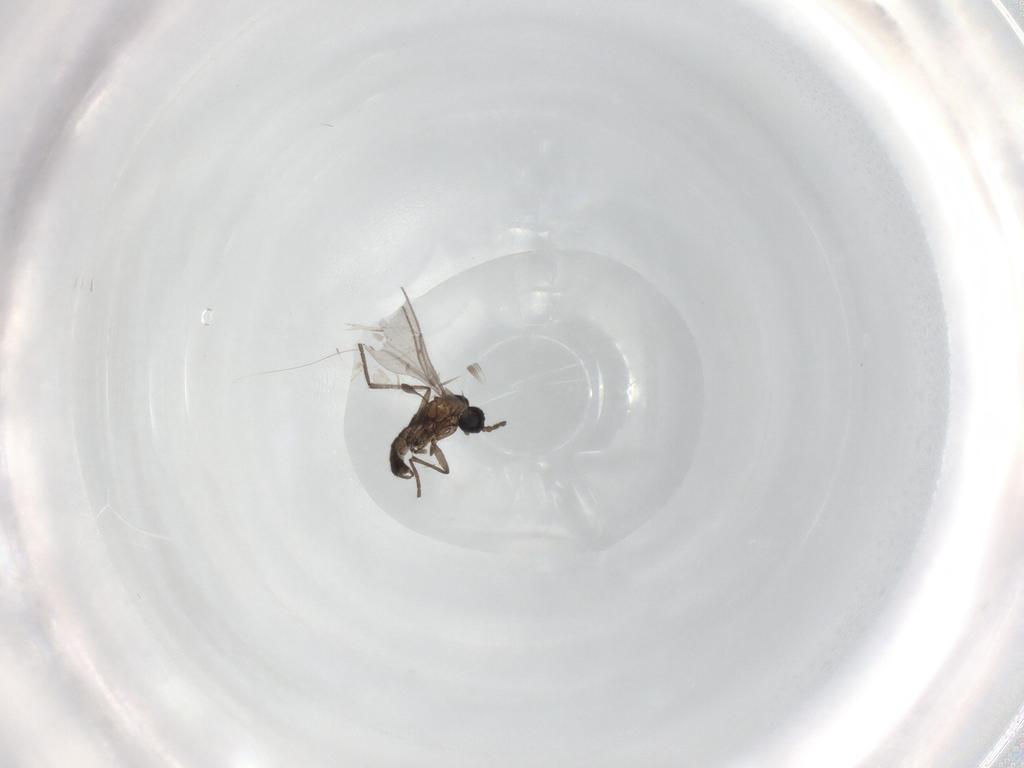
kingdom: Animalia
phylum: Arthropoda
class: Insecta
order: Diptera
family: Sciaridae
